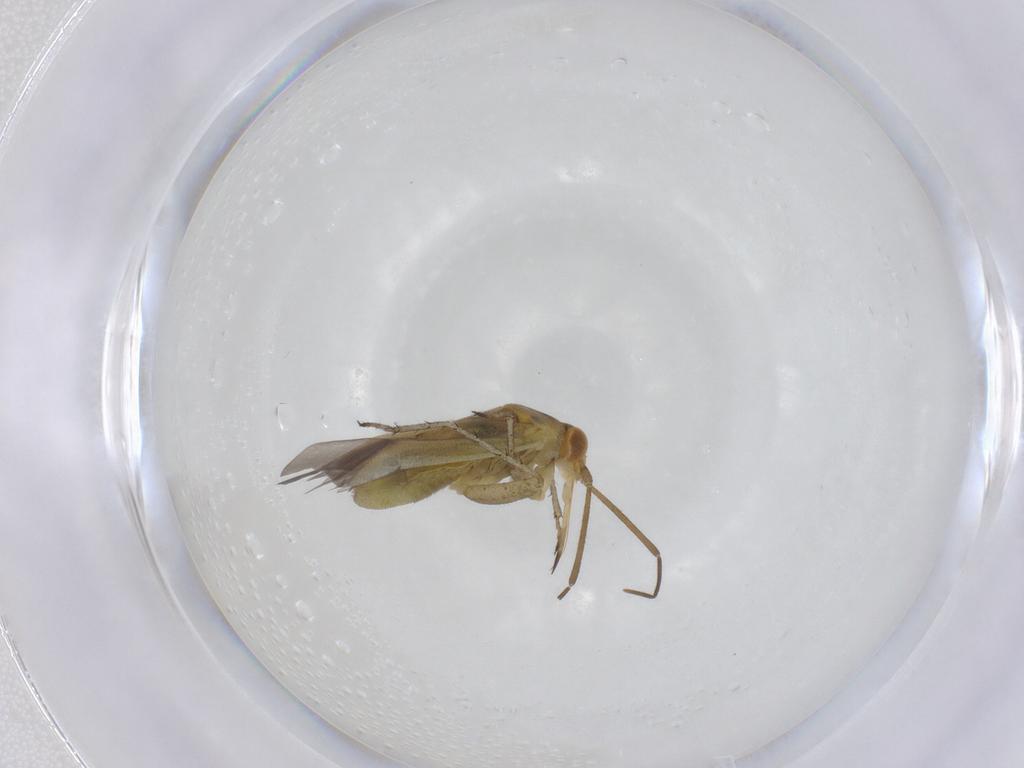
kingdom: Animalia
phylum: Arthropoda
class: Insecta
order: Hemiptera
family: Miridae
